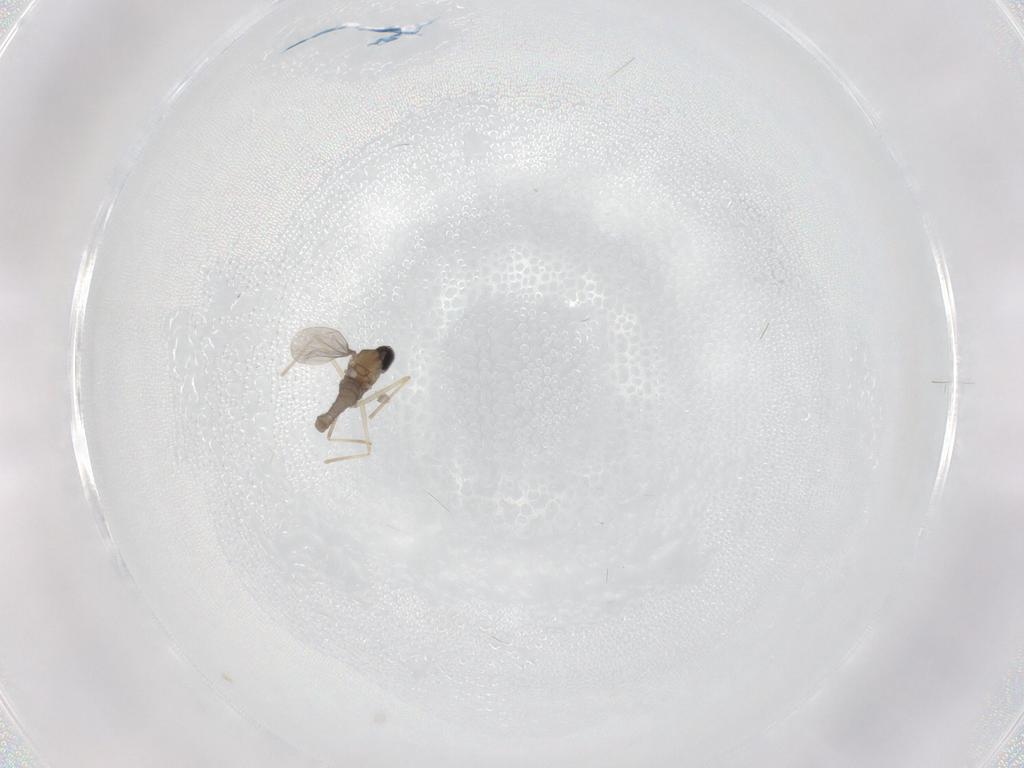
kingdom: Animalia
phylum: Arthropoda
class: Insecta
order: Diptera
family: Cecidomyiidae
